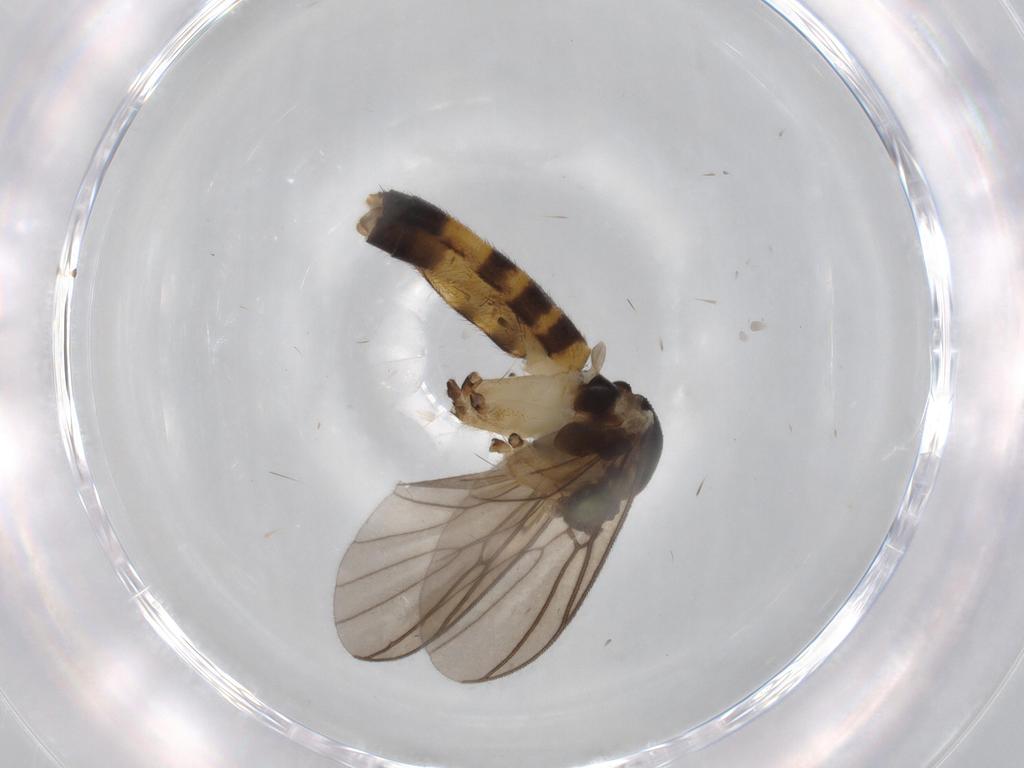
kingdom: Animalia
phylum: Arthropoda
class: Insecta
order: Diptera
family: Mycetophilidae
